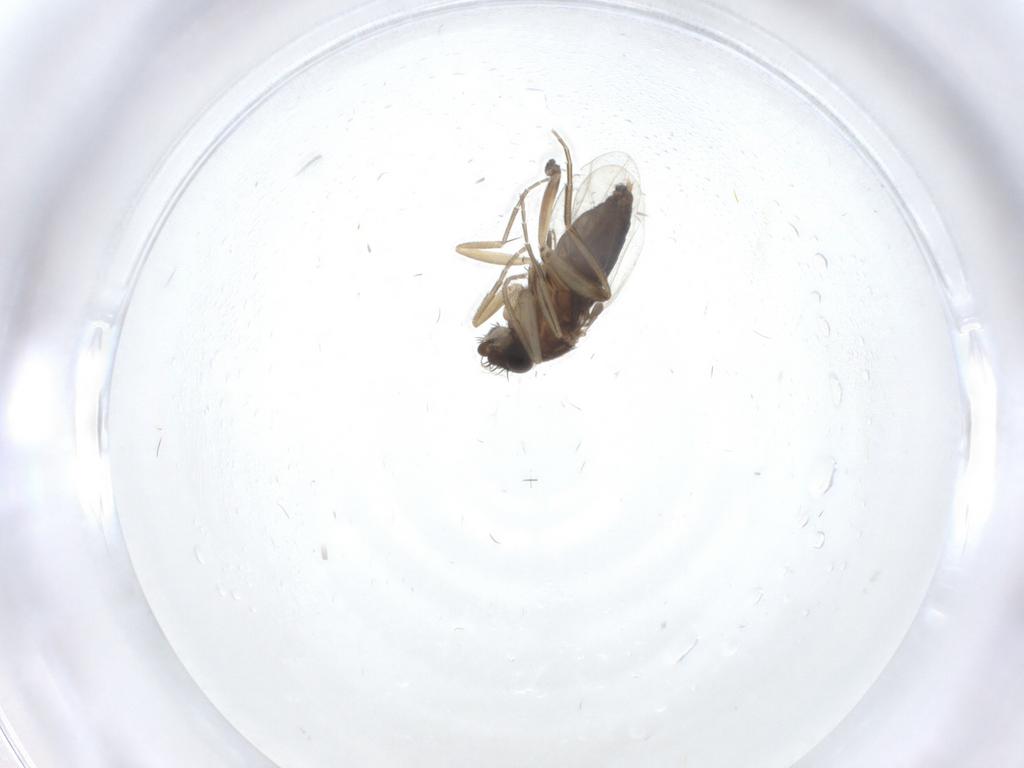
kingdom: Animalia
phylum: Arthropoda
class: Insecta
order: Diptera
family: Phoridae
